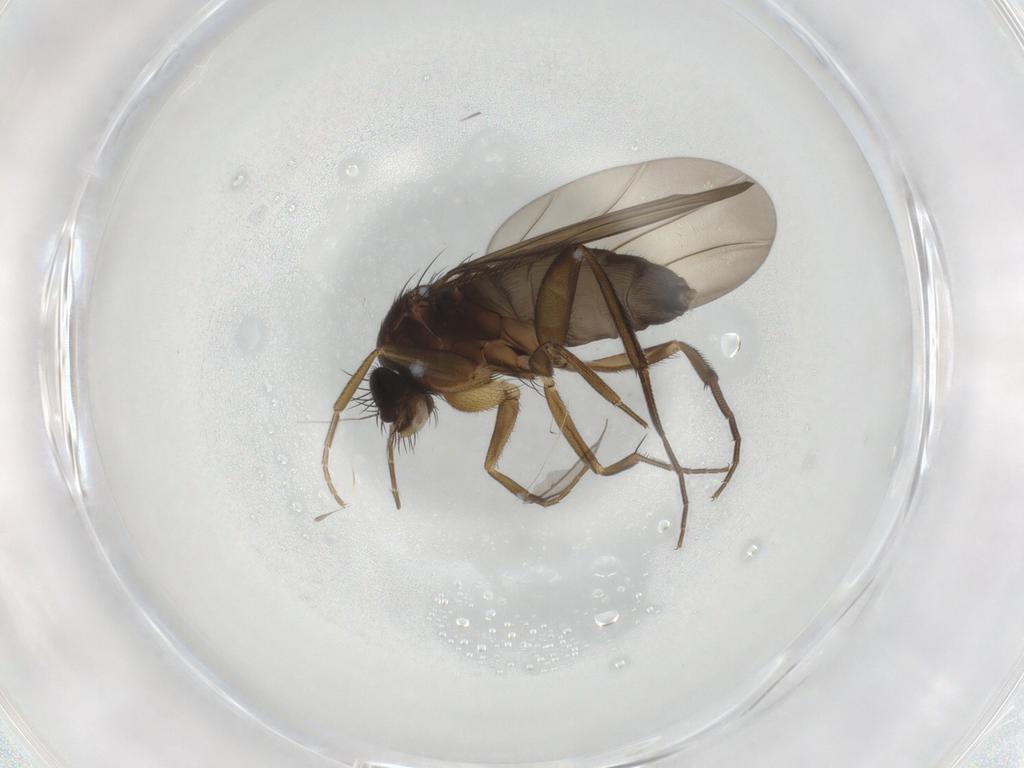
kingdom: Animalia
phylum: Arthropoda
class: Insecta
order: Diptera
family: Phoridae
